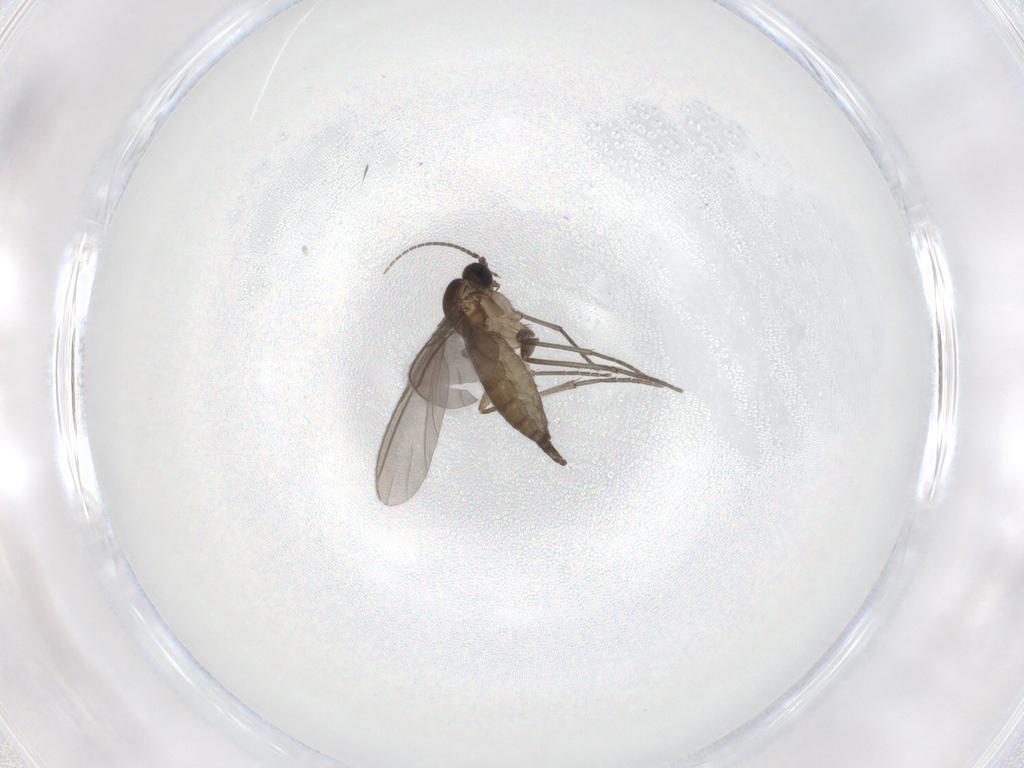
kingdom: Animalia
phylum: Arthropoda
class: Insecta
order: Diptera
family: Sciaridae
